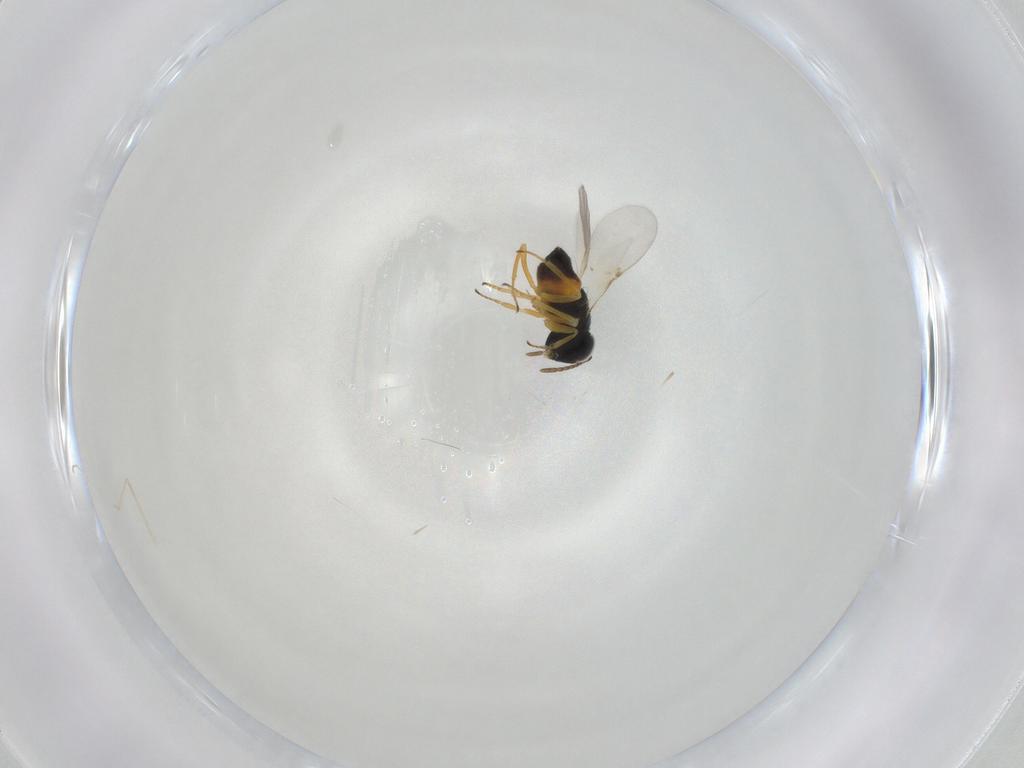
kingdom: Animalia
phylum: Arthropoda
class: Insecta
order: Hymenoptera
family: Encyrtidae
